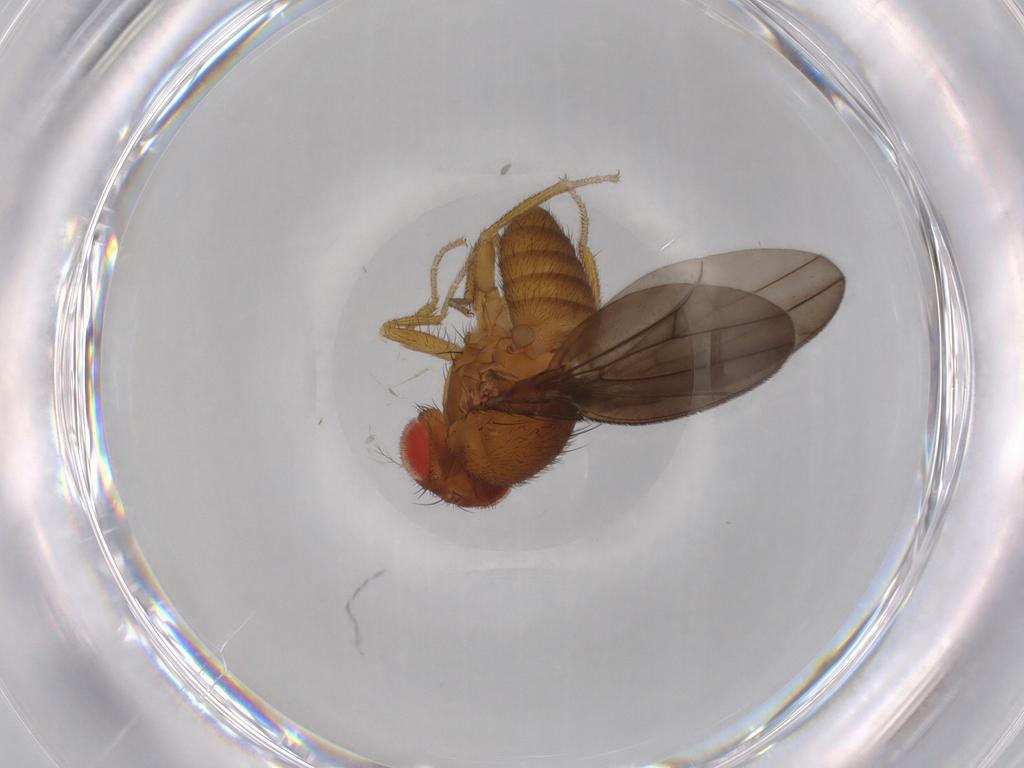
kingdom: Animalia
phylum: Arthropoda
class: Insecta
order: Diptera
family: Drosophilidae
